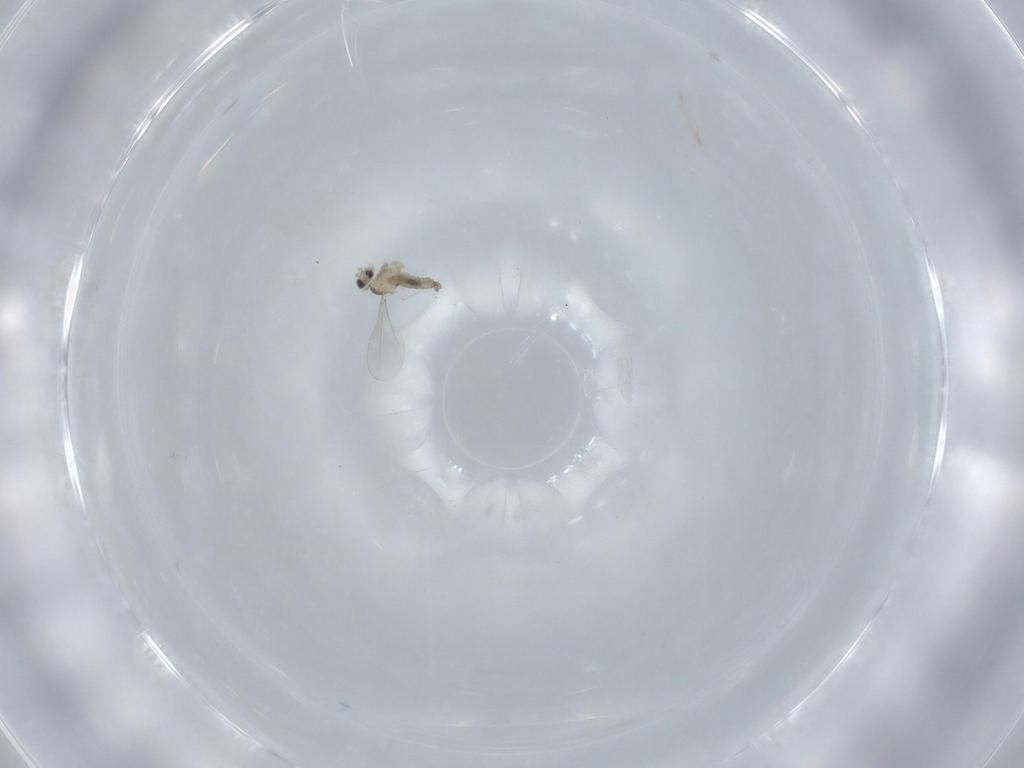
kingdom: Animalia
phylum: Arthropoda
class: Insecta
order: Diptera
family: Cecidomyiidae
